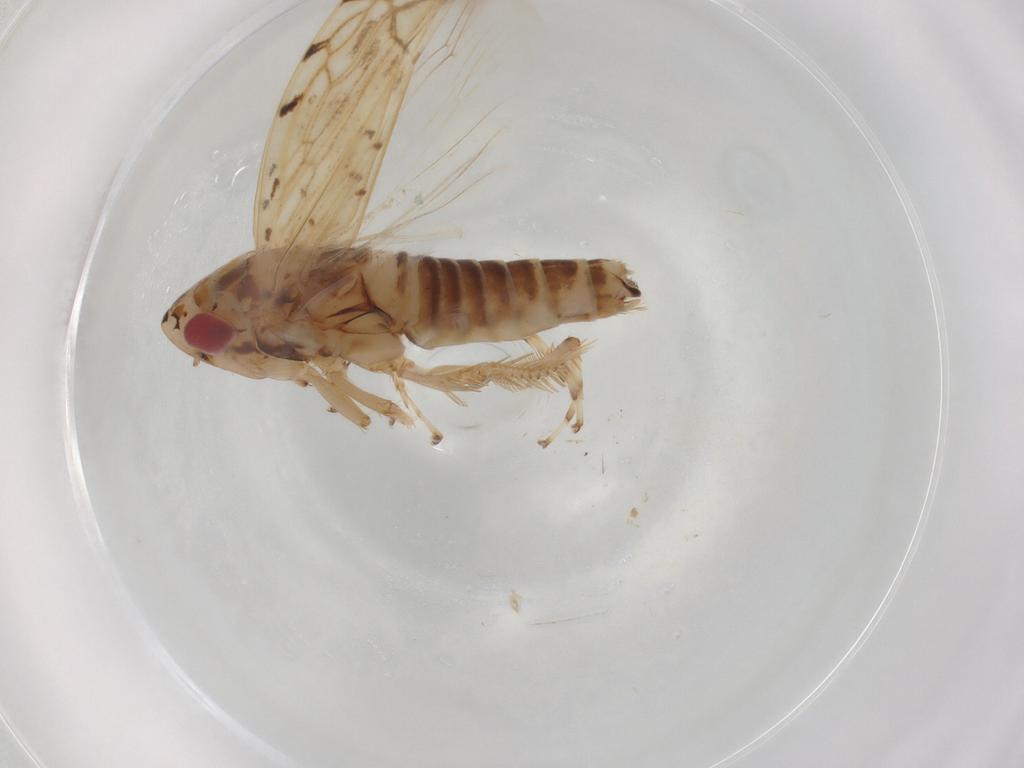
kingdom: Animalia
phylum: Arthropoda
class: Insecta
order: Hemiptera
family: Cicadellidae
